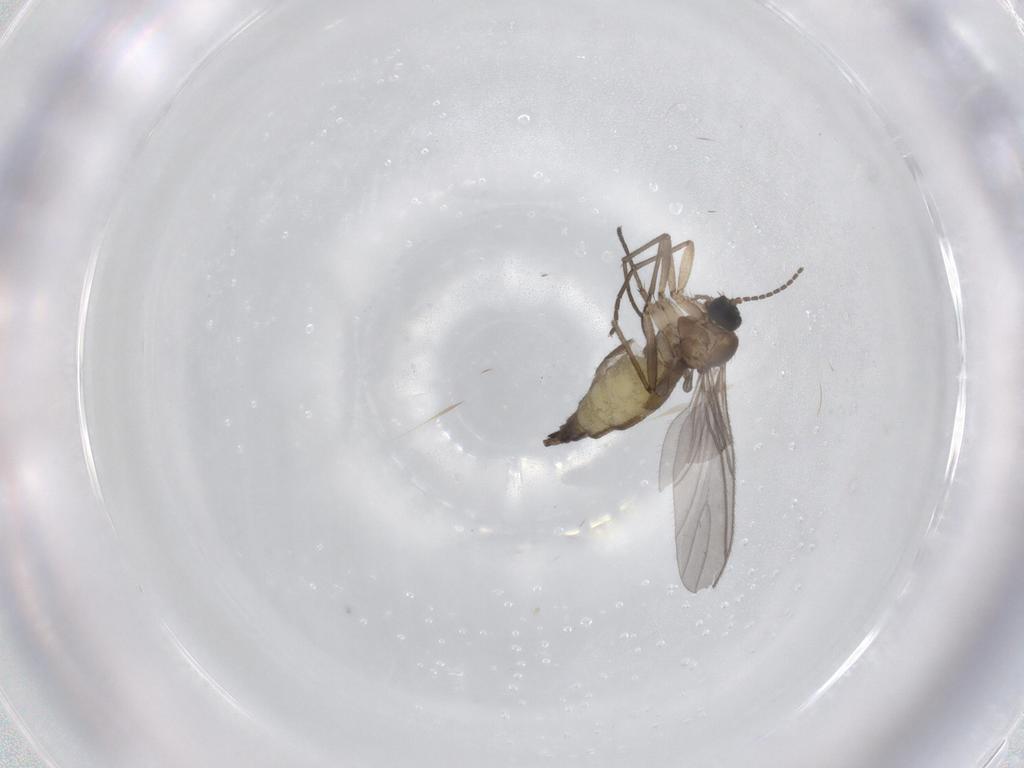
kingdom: Animalia
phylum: Arthropoda
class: Insecta
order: Diptera
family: Sciaridae
